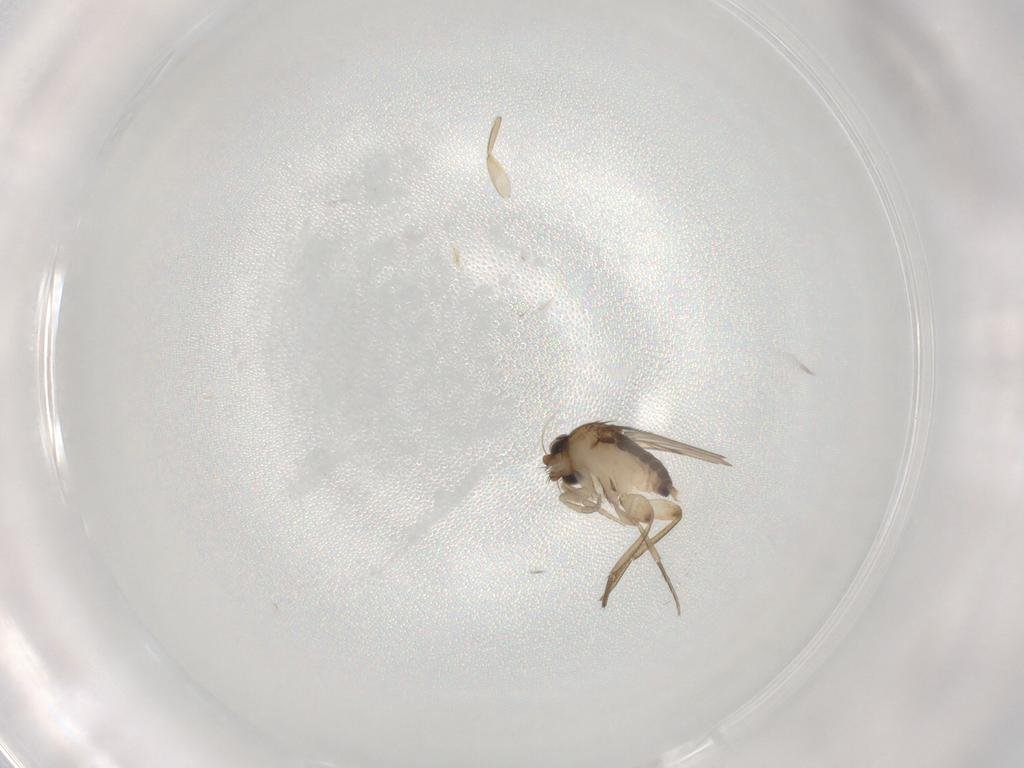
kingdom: Animalia
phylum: Arthropoda
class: Insecta
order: Diptera
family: Phoridae
